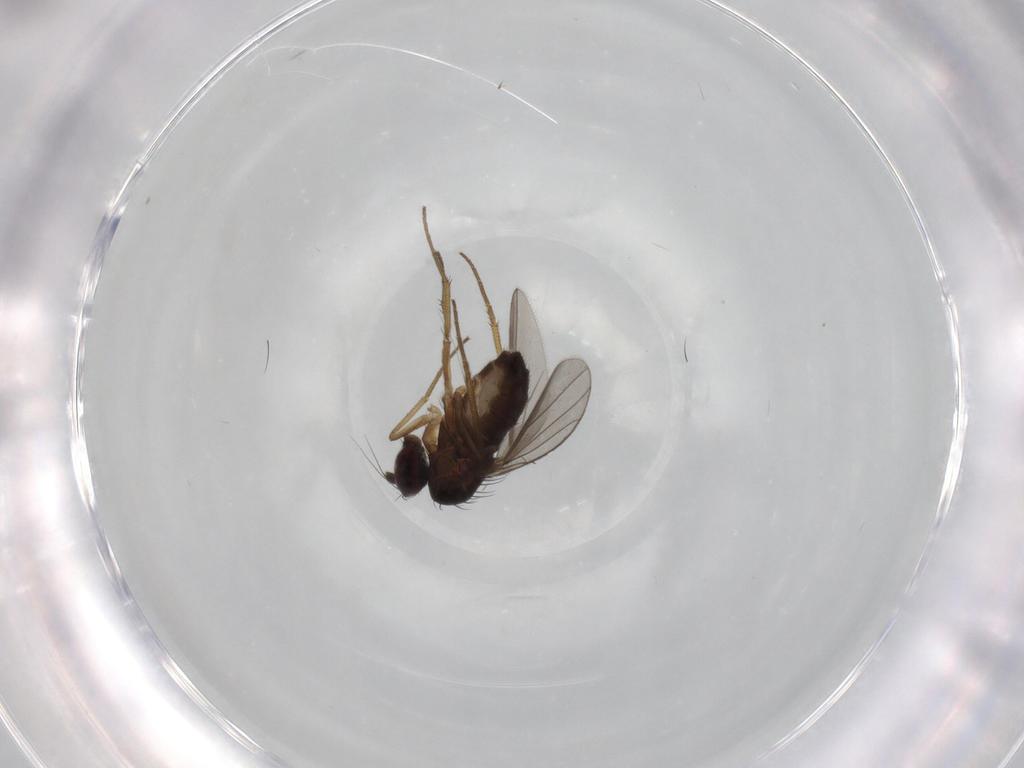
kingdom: Animalia
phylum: Arthropoda
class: Insecta
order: Diptera
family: Dolichopodidae
